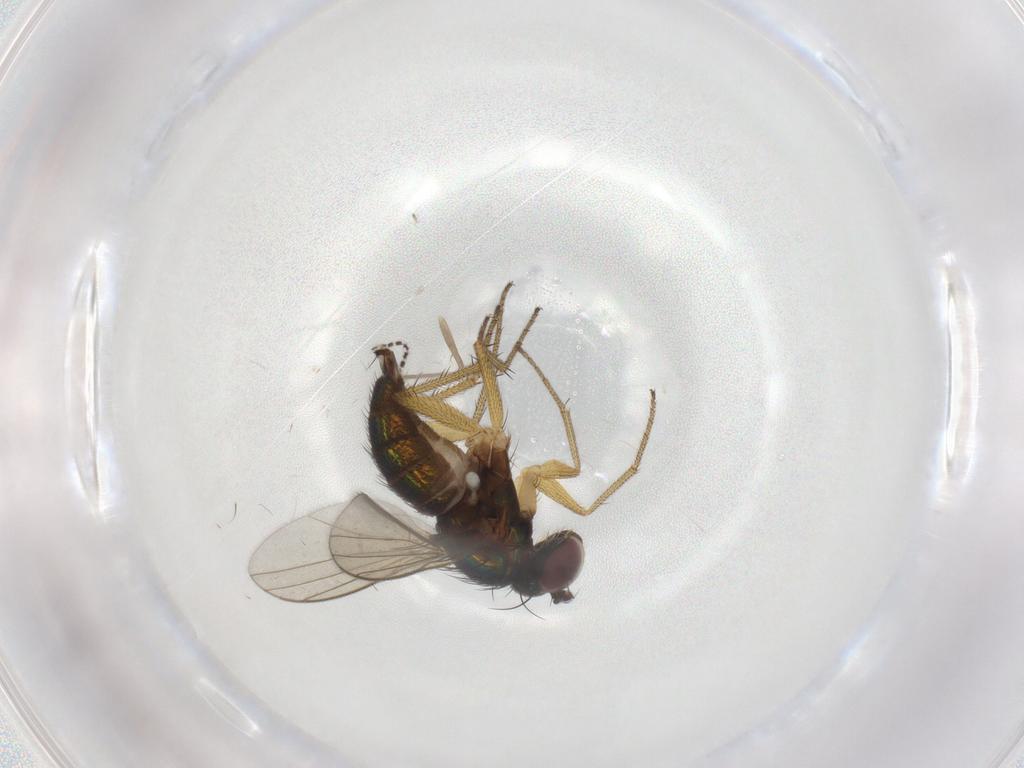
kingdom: Animalia
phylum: Arthropoda
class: Insecta
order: Diptera
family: Dolichopodidae
